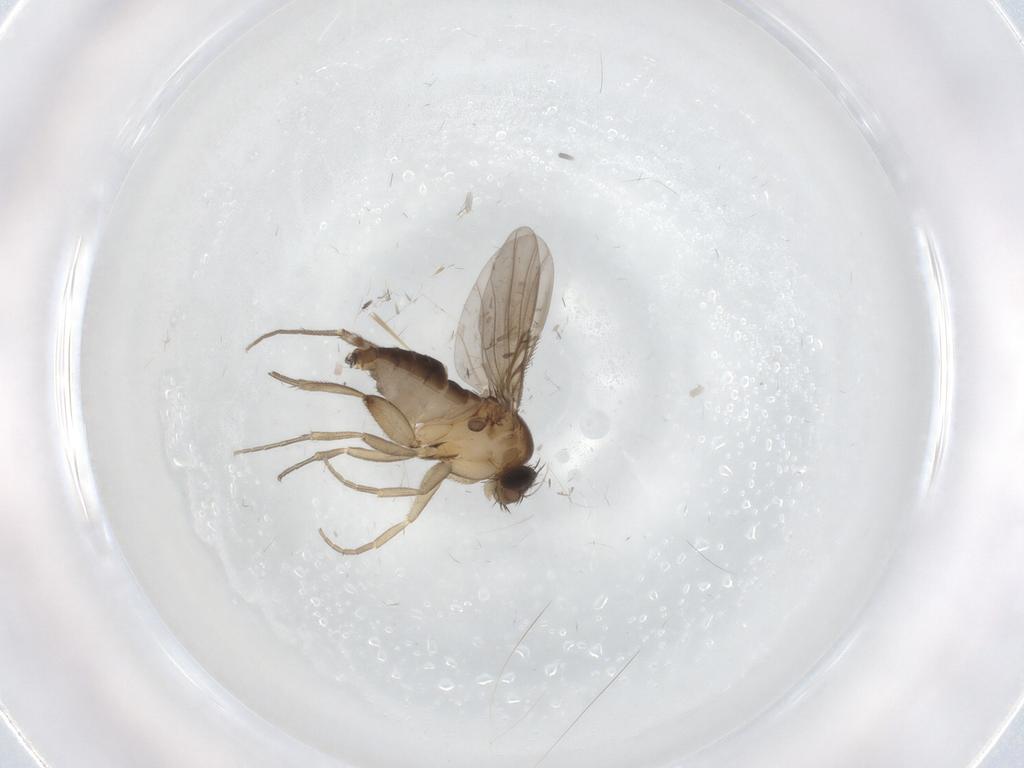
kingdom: Animalia
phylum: Arthropoda
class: Insecta
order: Diptera
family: Phoridae
